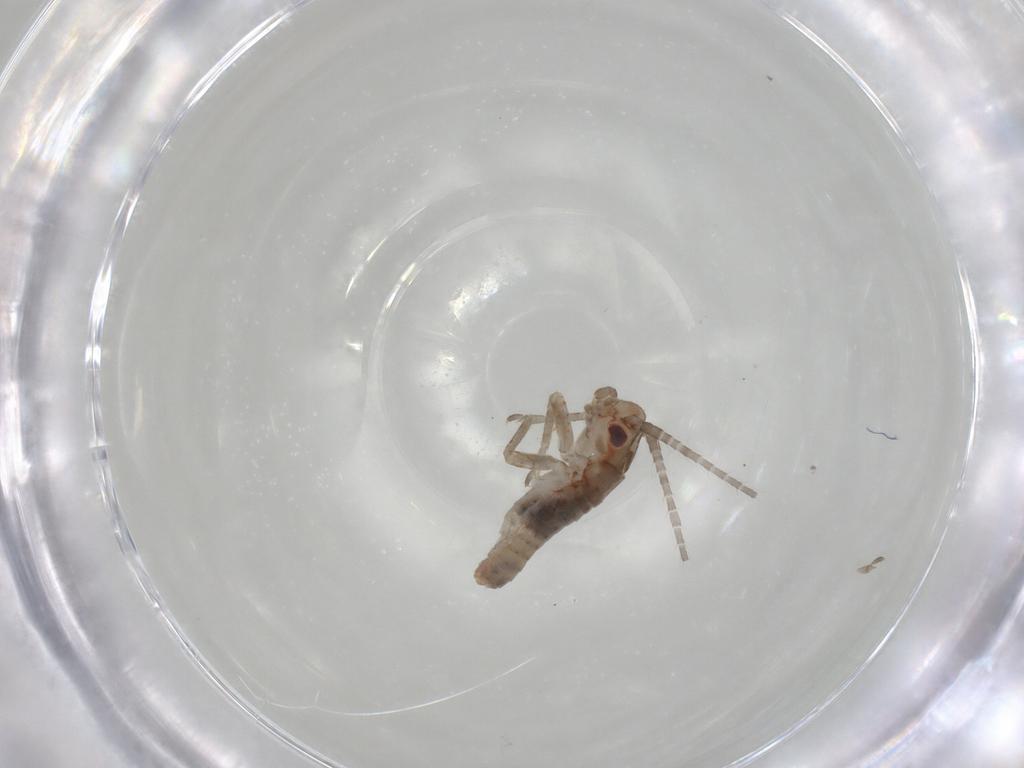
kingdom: Animalia
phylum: Arthropoda
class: Insecta
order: Orthoptera
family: Mogoplistidae
